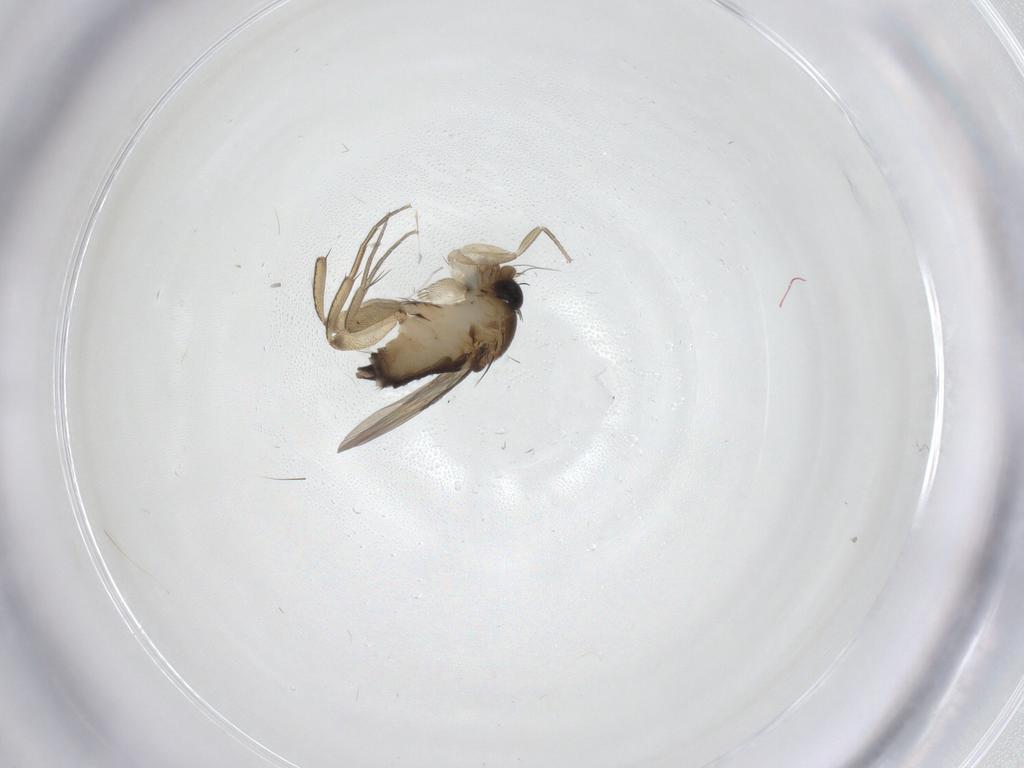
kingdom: Animalia
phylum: Arthropoda
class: Insecta
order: Diptera
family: Phoridae
